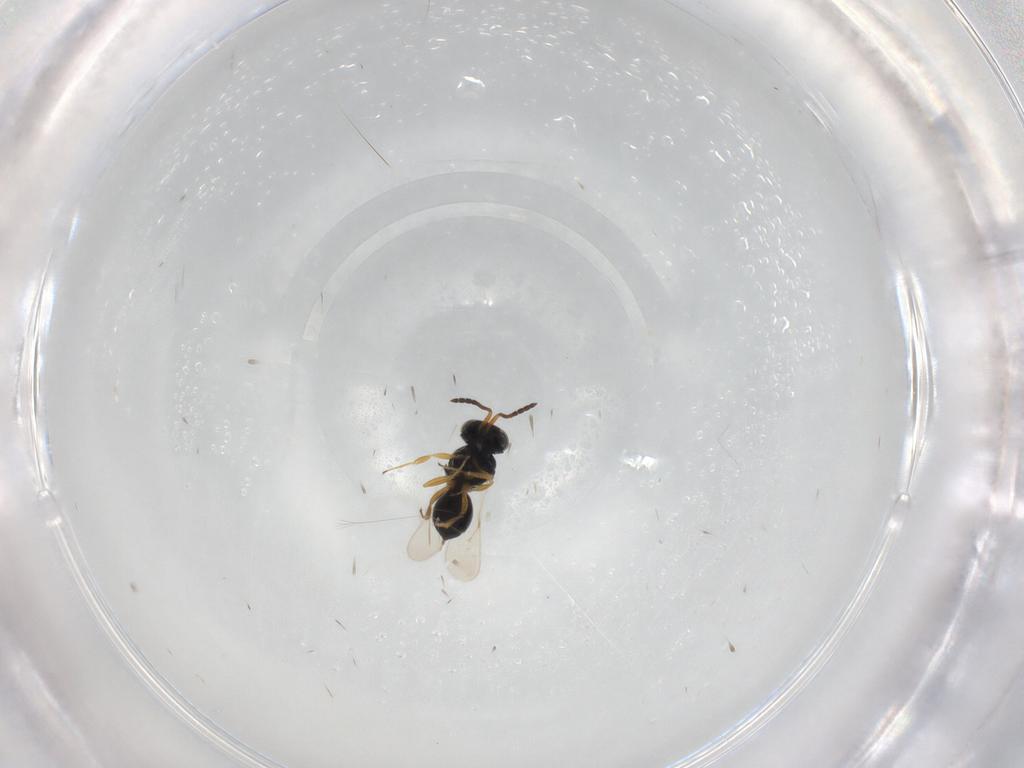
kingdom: Animalia
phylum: Arthropoda
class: Insecta
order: Hymenoptera
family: Scelionidae
